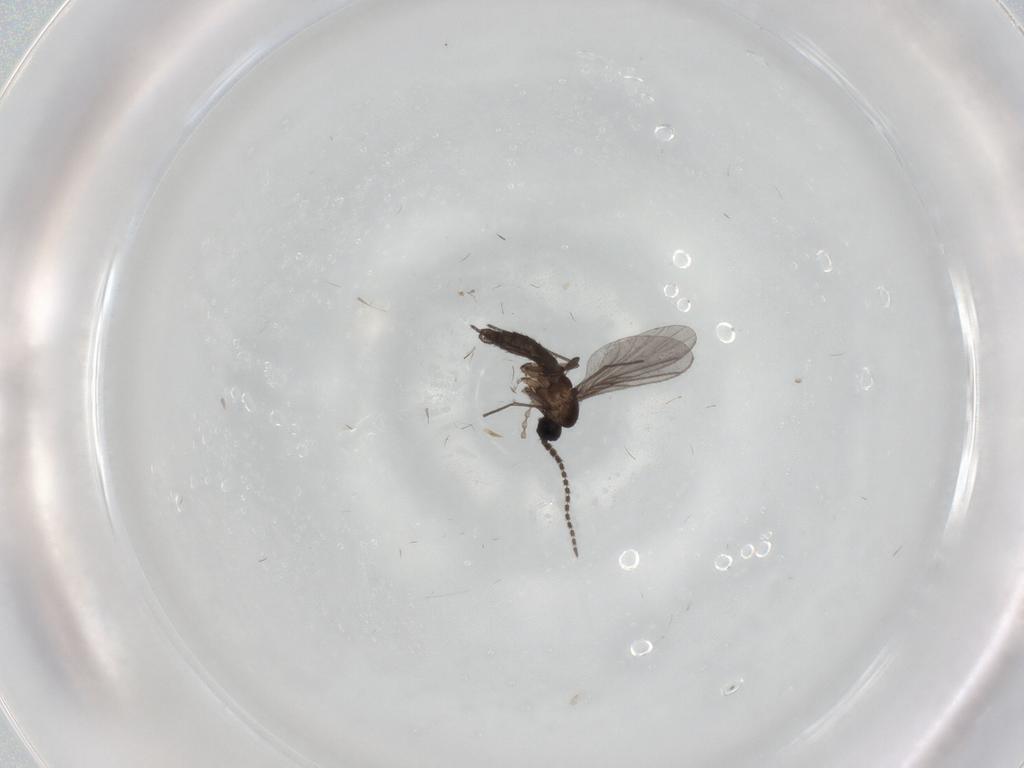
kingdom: Animalia
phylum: Arthropoda
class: Insecta
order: Diptera
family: Sciaridae
